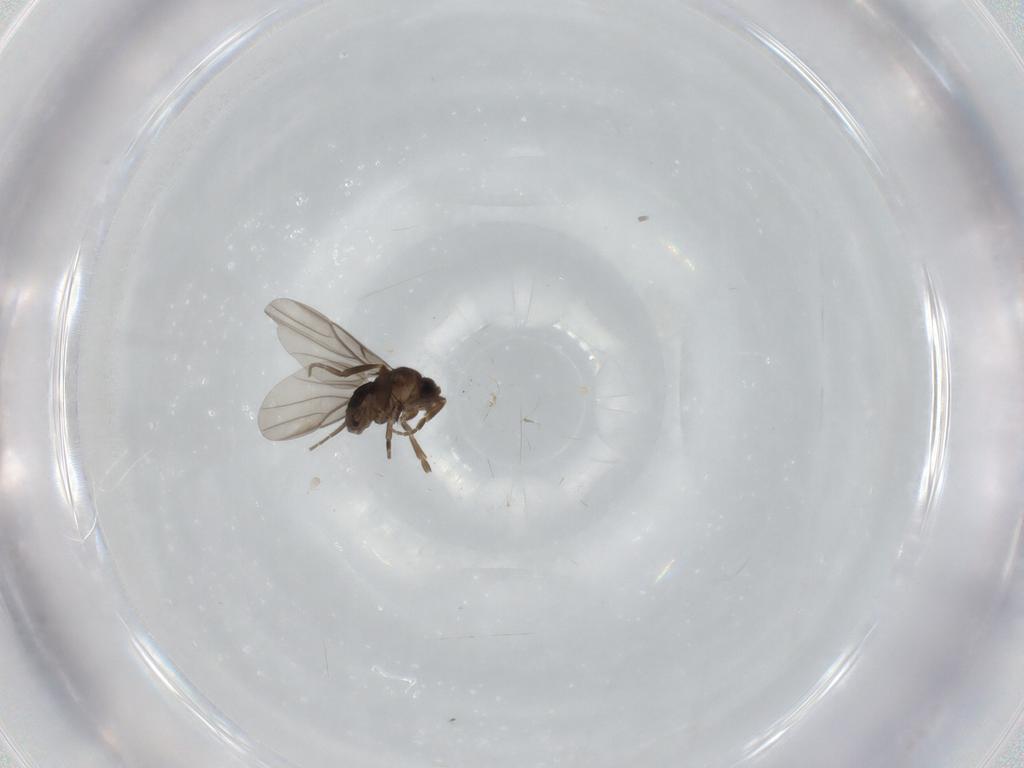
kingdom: Animalia
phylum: Arthropoda
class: Insecta
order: Diptera
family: Phoridae
